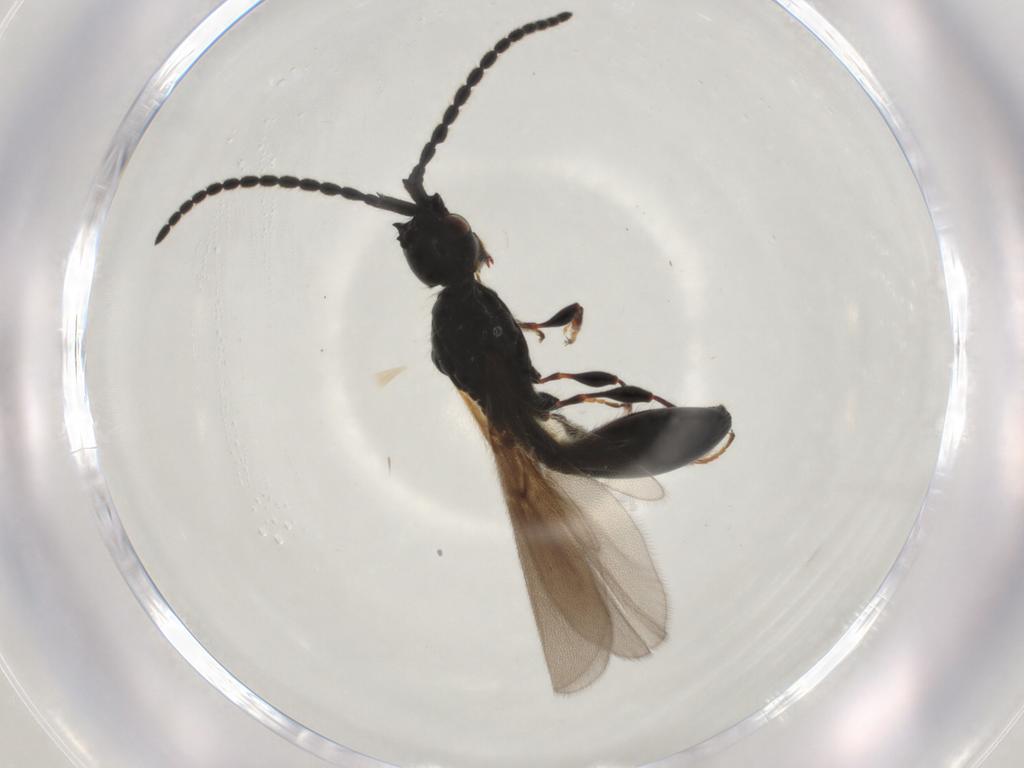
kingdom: Animalia
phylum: Arthropoda
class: Insecta
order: Hymenoptera
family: Diapriidae
